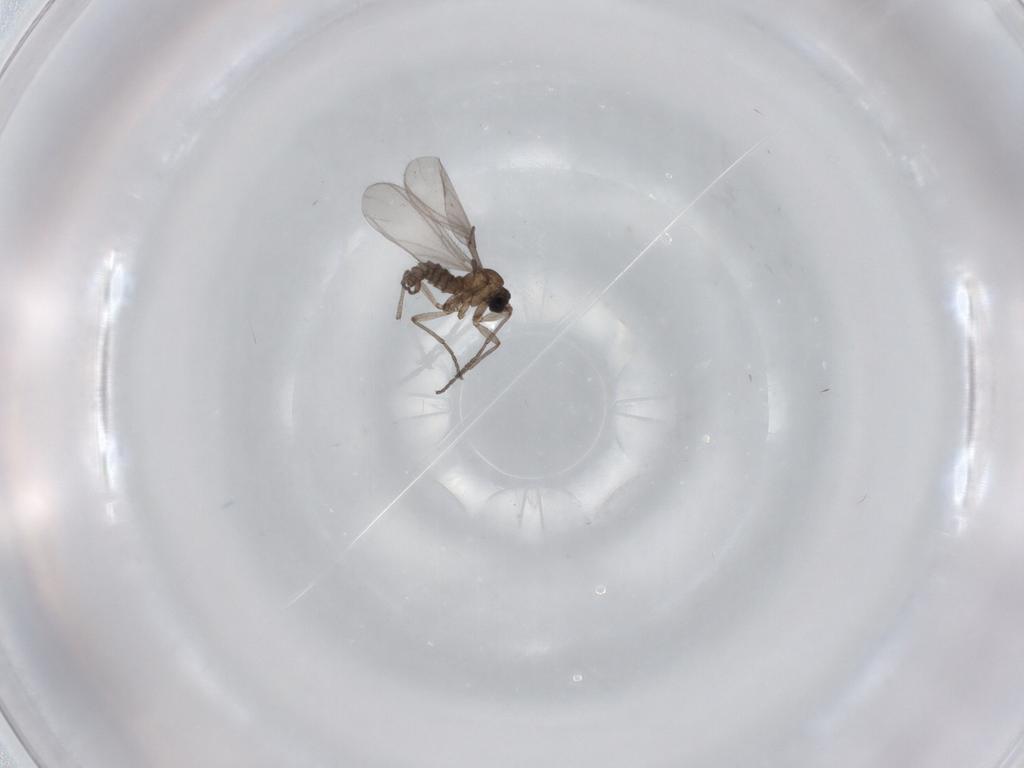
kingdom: Animalia
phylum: Arthropoda
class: Insecta
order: Diptera
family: Sciaridae
